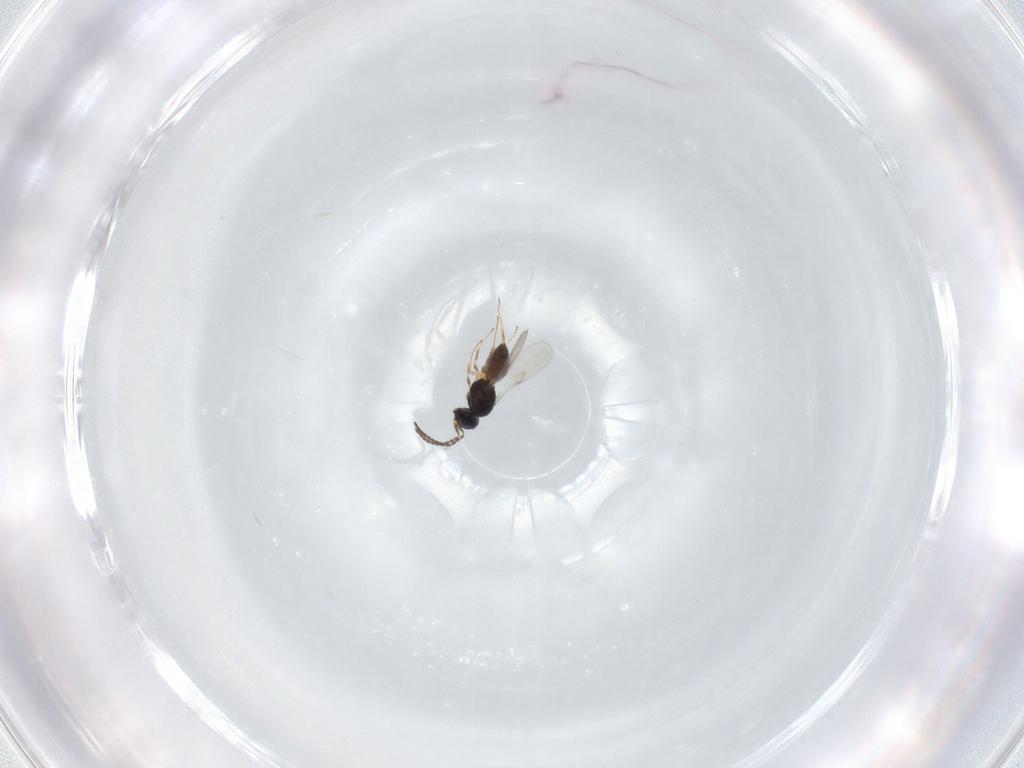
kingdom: Animalia
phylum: Arthropoda
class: Insecta
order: Hymenoptera
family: Scelionidae
